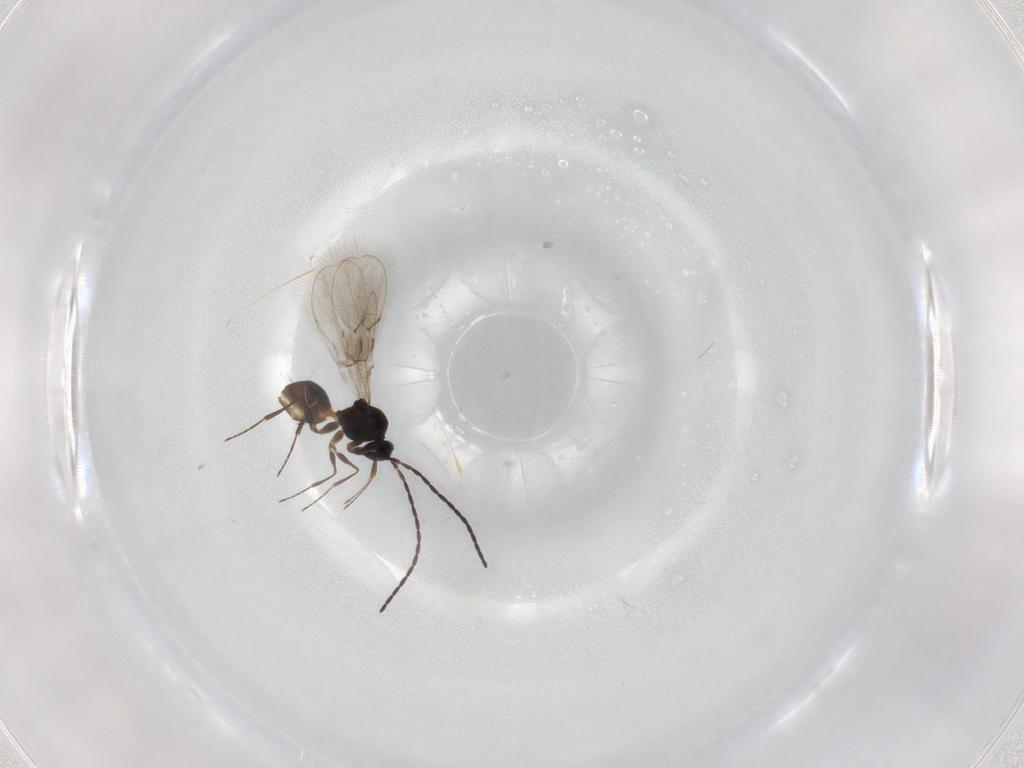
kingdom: Animalia
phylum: Arthropoda
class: Insecta
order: Hymenoptera
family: Figitidae
